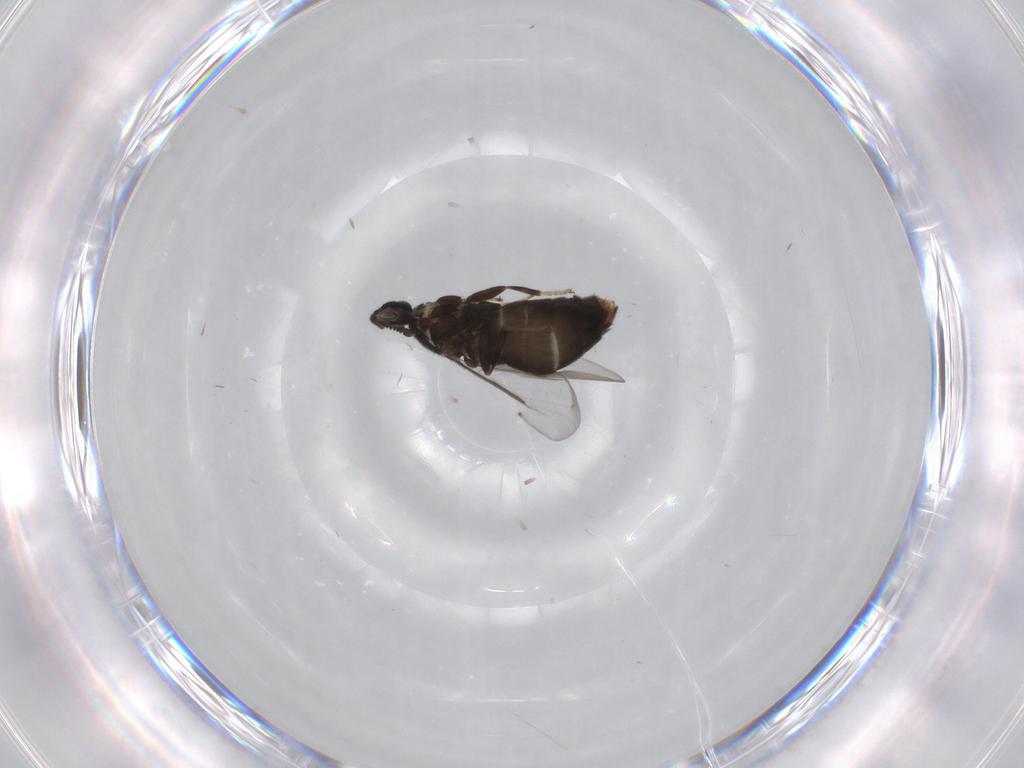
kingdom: Animalia
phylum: Arthropoda
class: Insecta
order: Diptera
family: Scatopsidae
